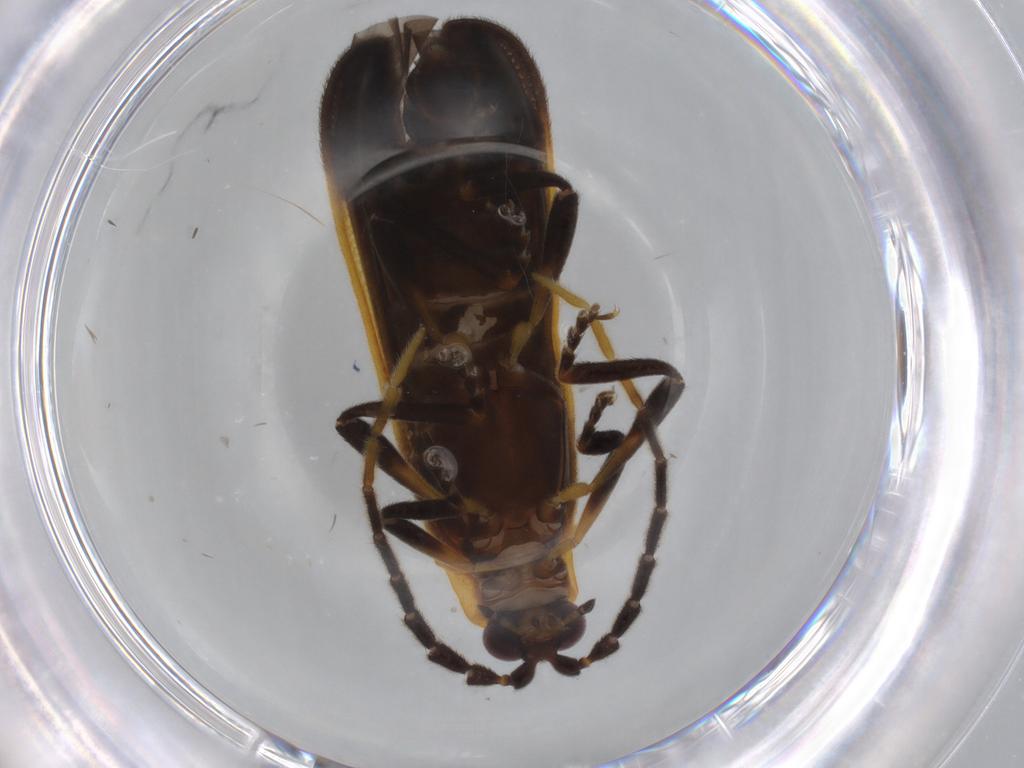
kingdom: Animalia
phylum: Arthropoda
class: Insecta
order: Coleoptera
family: Lycidae
